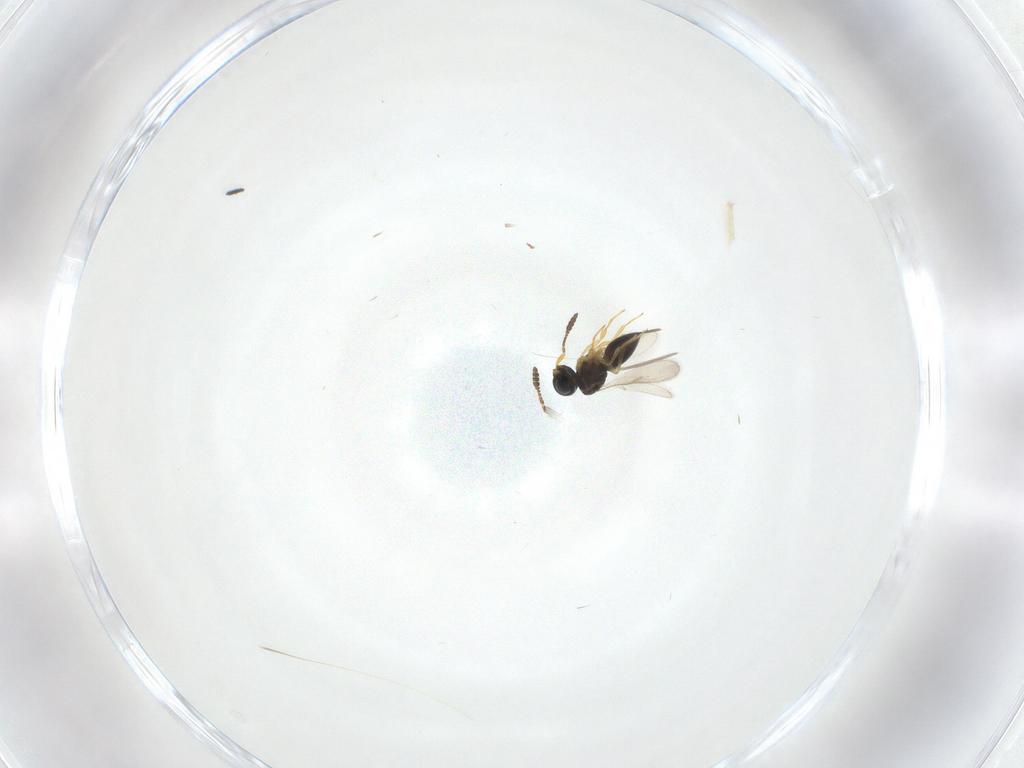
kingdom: Animalia
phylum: Arthropoda
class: Insecta
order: Hymenoptera
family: Scelionidae
